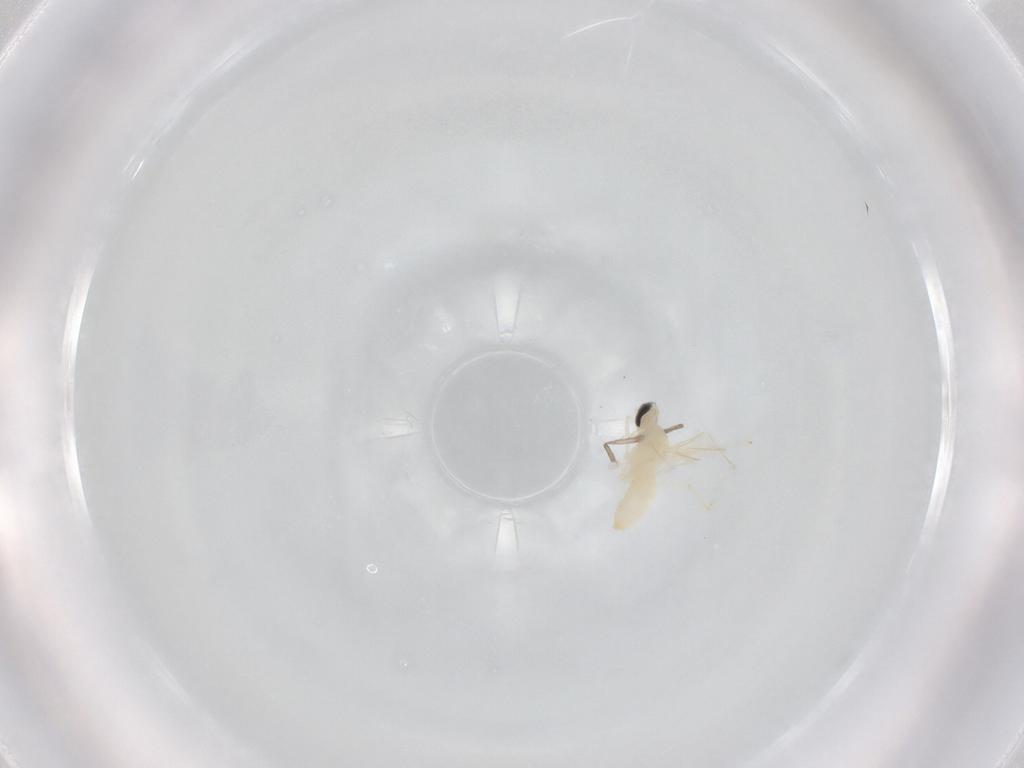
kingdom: Animalia
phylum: Arthropoda
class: Insecta
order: Diptera
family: Cecidomyiidae
